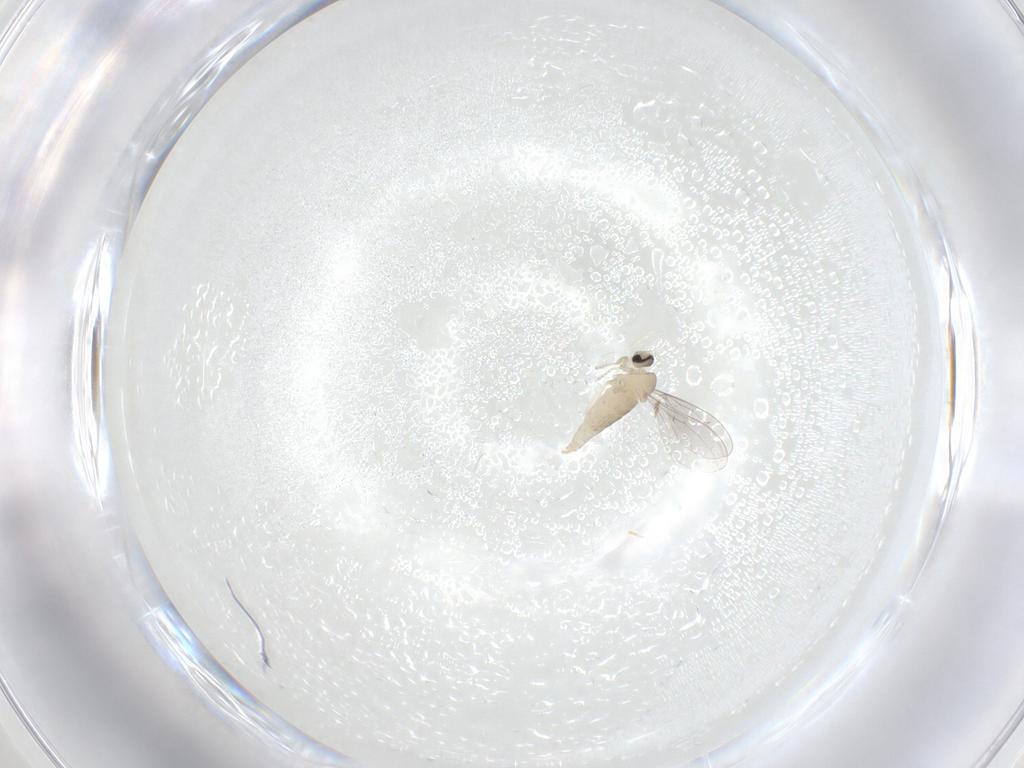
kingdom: Animalia
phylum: Arthropoda
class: Insecta
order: Diptera
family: Cecidomyiidae
